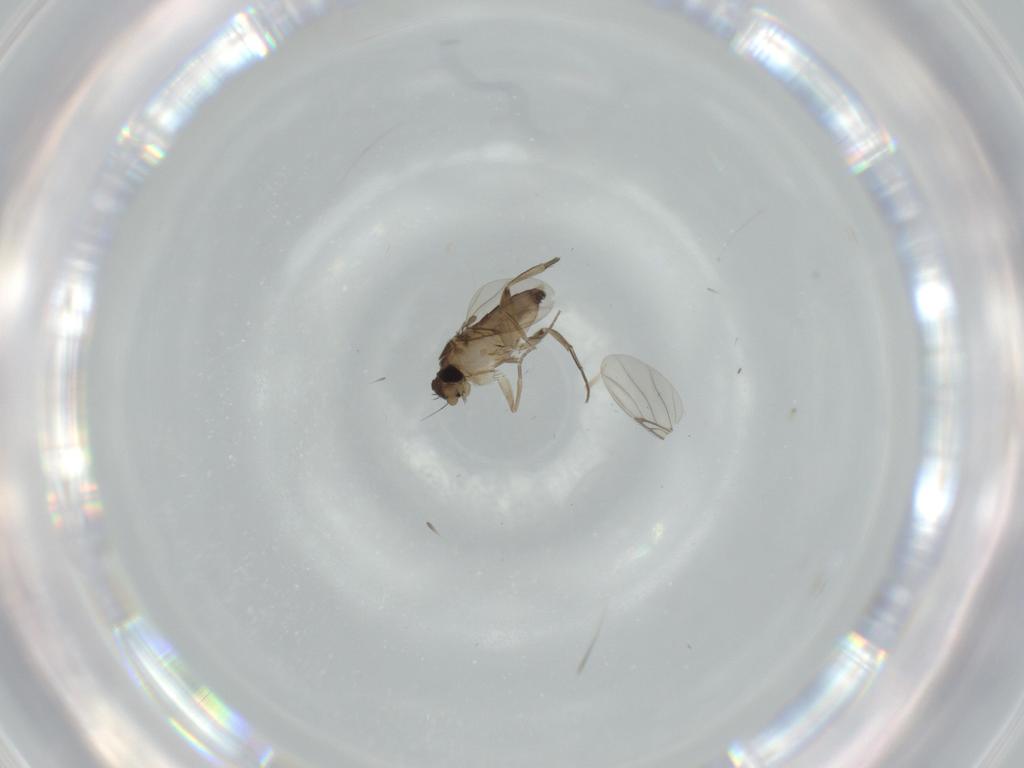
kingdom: Animalia
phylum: Arthropoda
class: Insecta
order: Diptera
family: Phoridae
